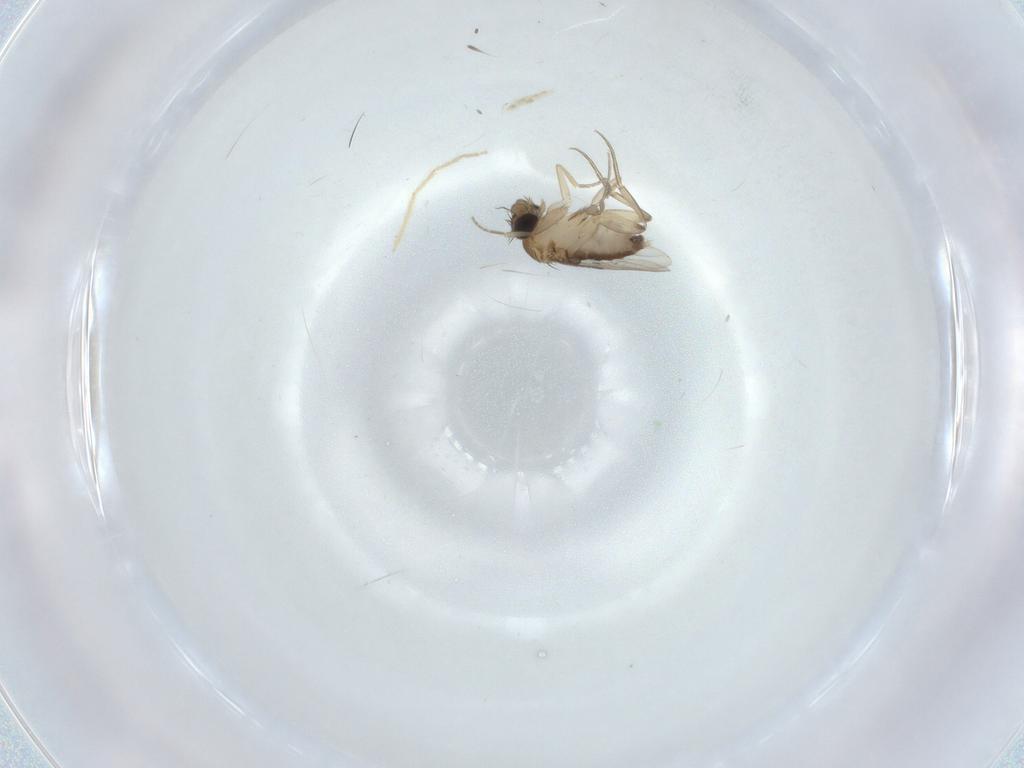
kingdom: Animalia
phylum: Arthropoda
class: Insecta
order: Diptera
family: Phoridae
